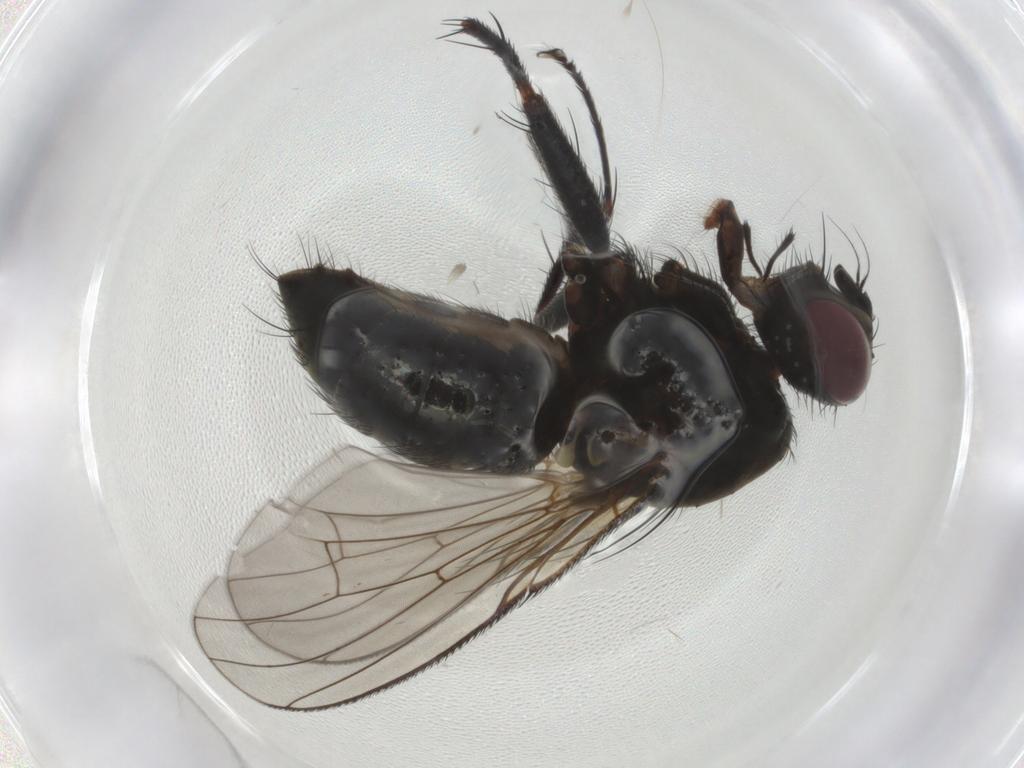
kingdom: Animalia
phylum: Arthropoda
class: Insecta
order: Diptera
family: Muscidae
